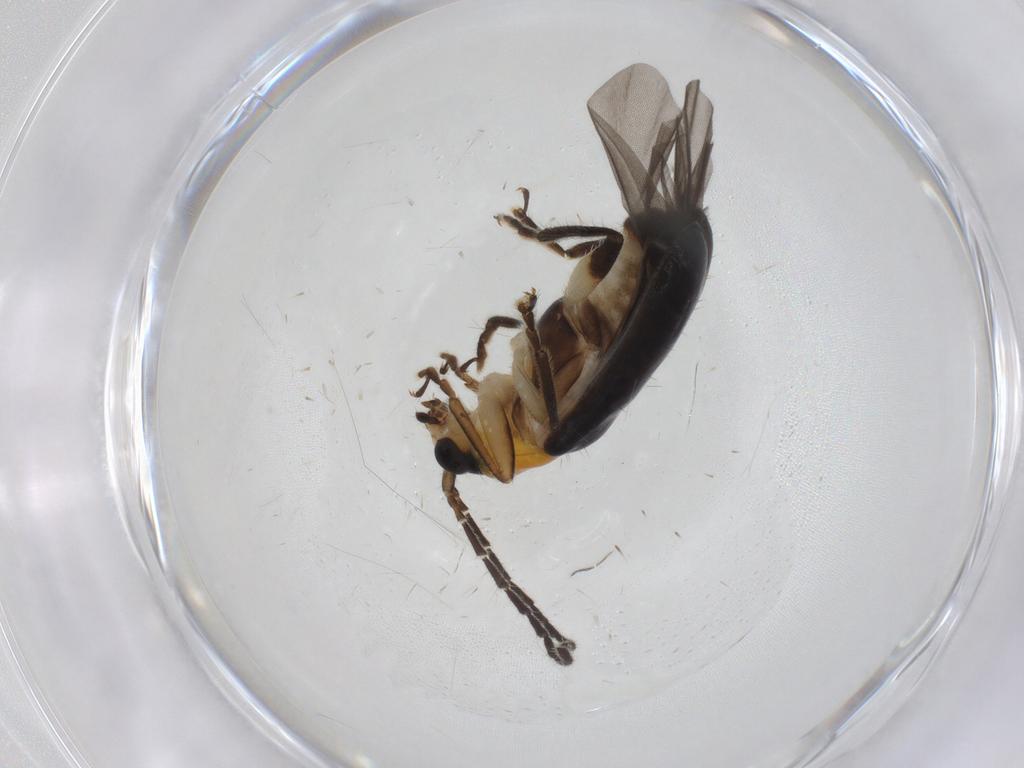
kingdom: Animalia
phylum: Arthropoda
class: Insecta
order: Coleoptera
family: Chrysomelidae
